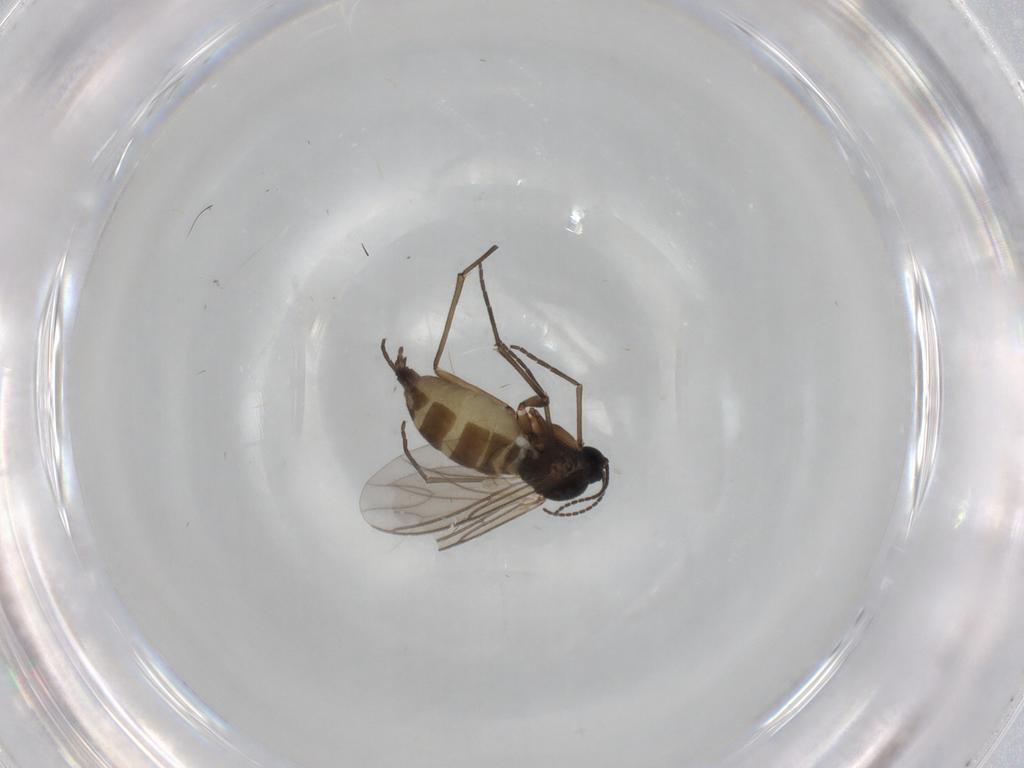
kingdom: Animalia
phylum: Arthropoda
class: Insecta
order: Diptera
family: Sciaridae
